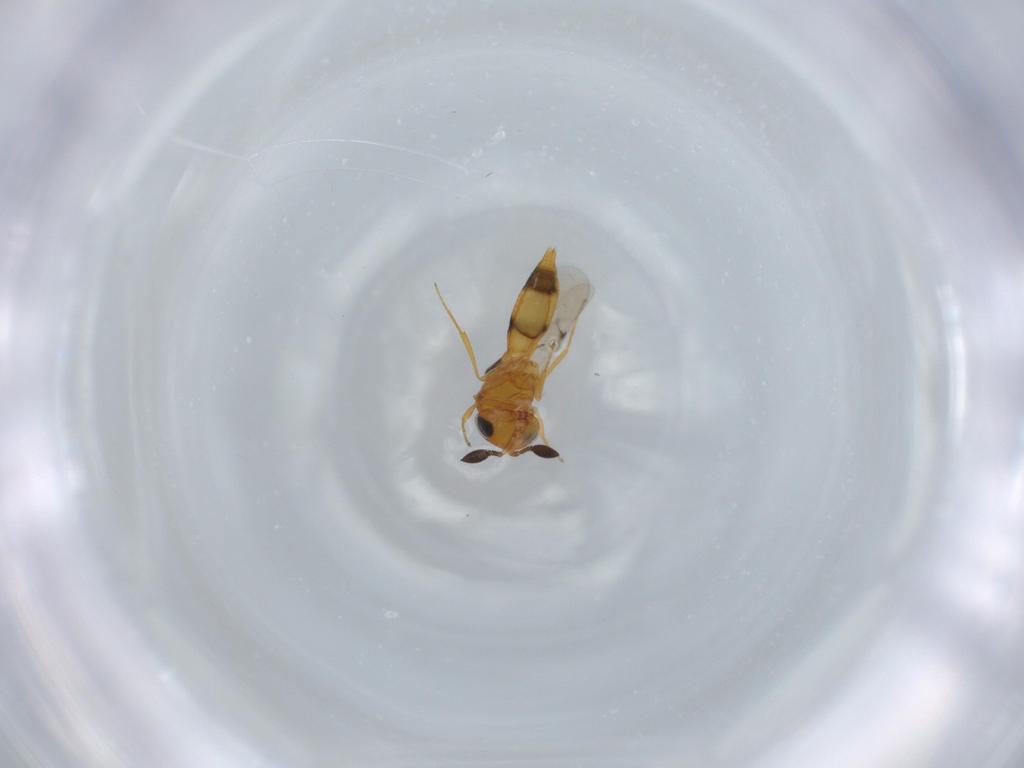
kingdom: Animalia
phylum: Arthropoda
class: Insecta
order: Hymenoptera
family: Scelionidae
